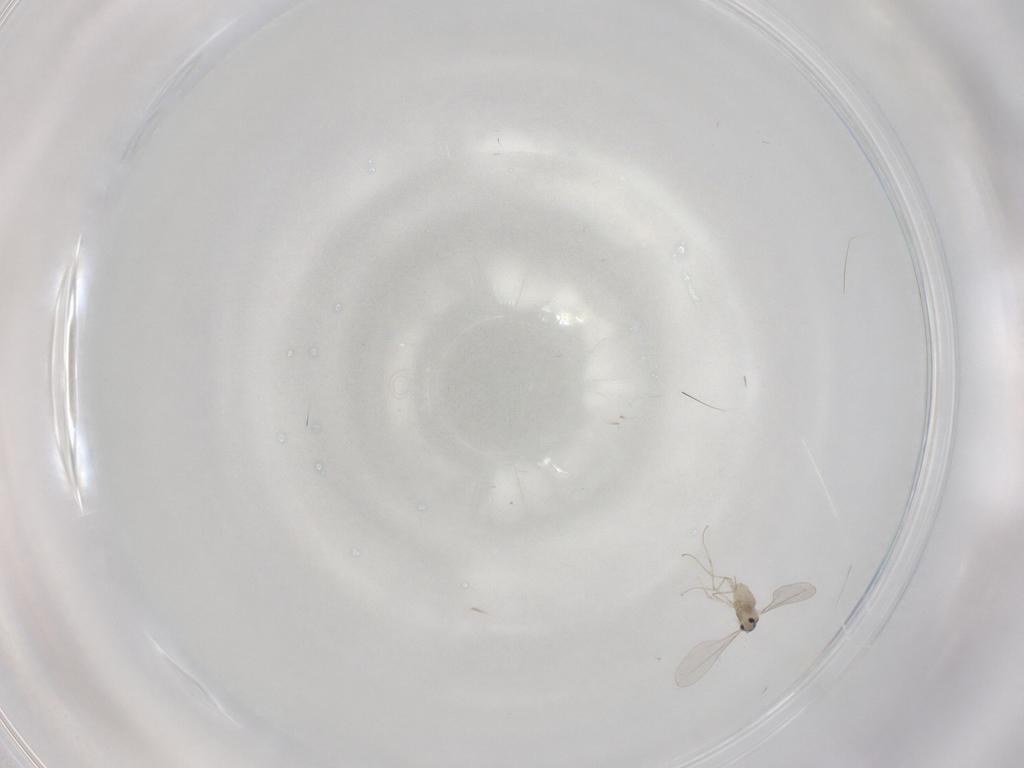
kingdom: Animalia
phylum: Arthropoda
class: Insecta
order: Diptera
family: Cecidomyiidae
